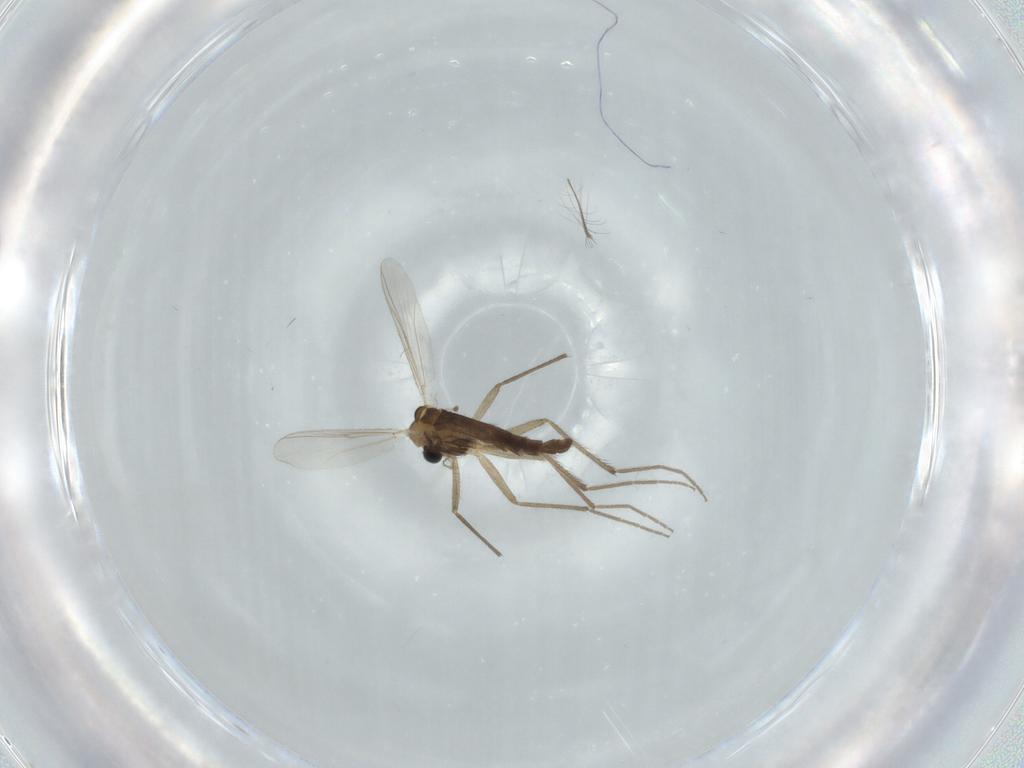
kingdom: Animalia
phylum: Arthropoda
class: Insecta
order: Diptera
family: Chironomidae
